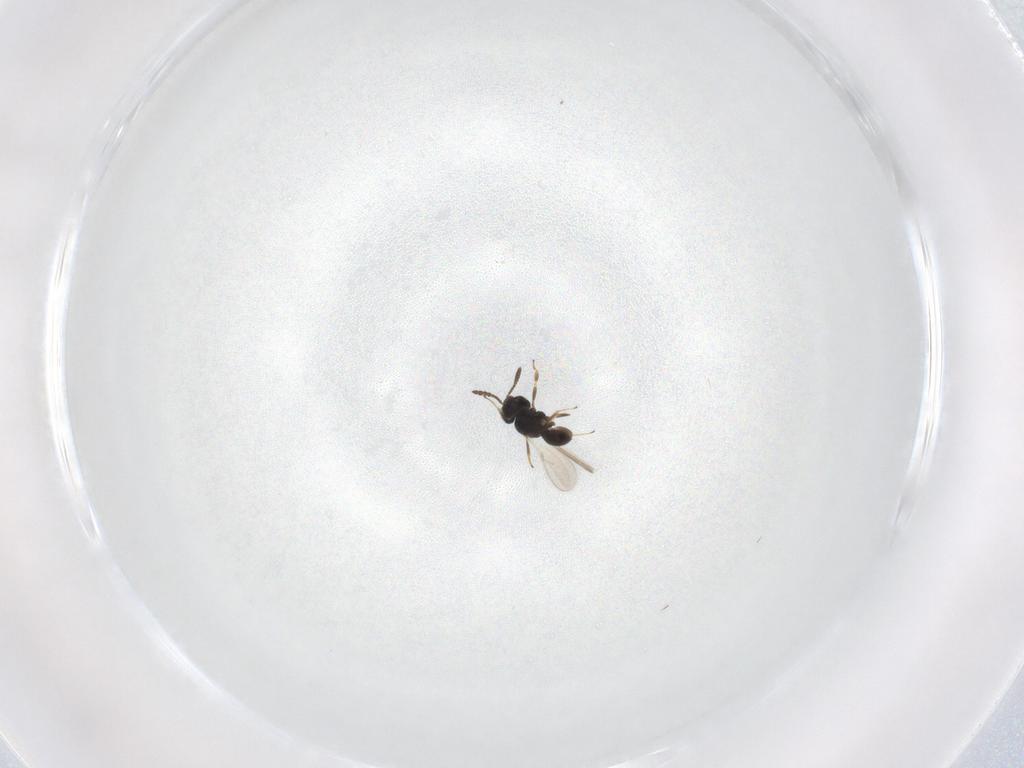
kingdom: Animalia
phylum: Arthropoda
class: Insecta
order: Hymenoptera
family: Scelionidae
